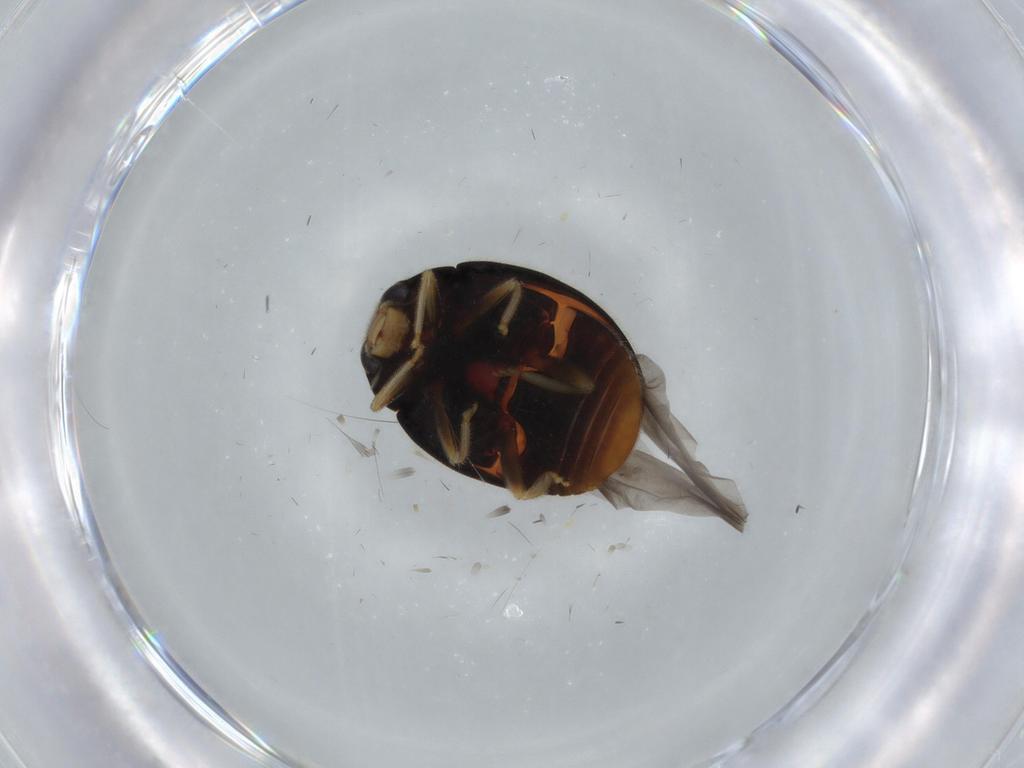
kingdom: Animalia
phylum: Arthropoda
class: Insecta
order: Coleoptera
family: Coccinellidae
